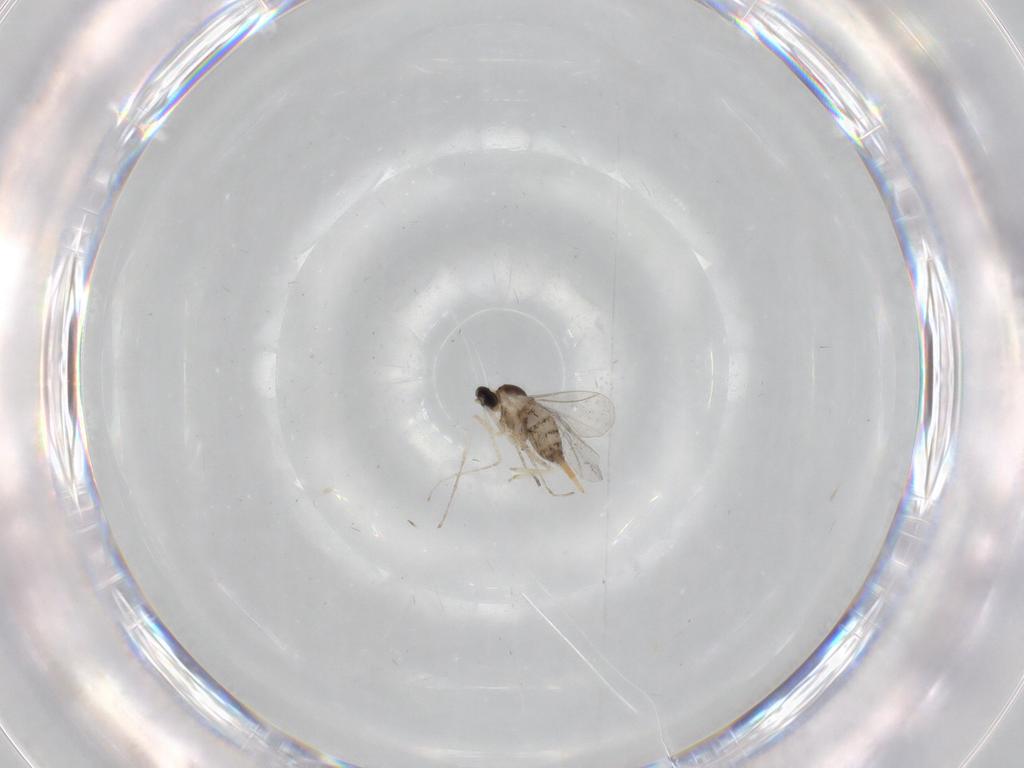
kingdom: Animalia
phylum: Arthropoda
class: Insecta
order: Diptera
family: Cecidomyiidae
